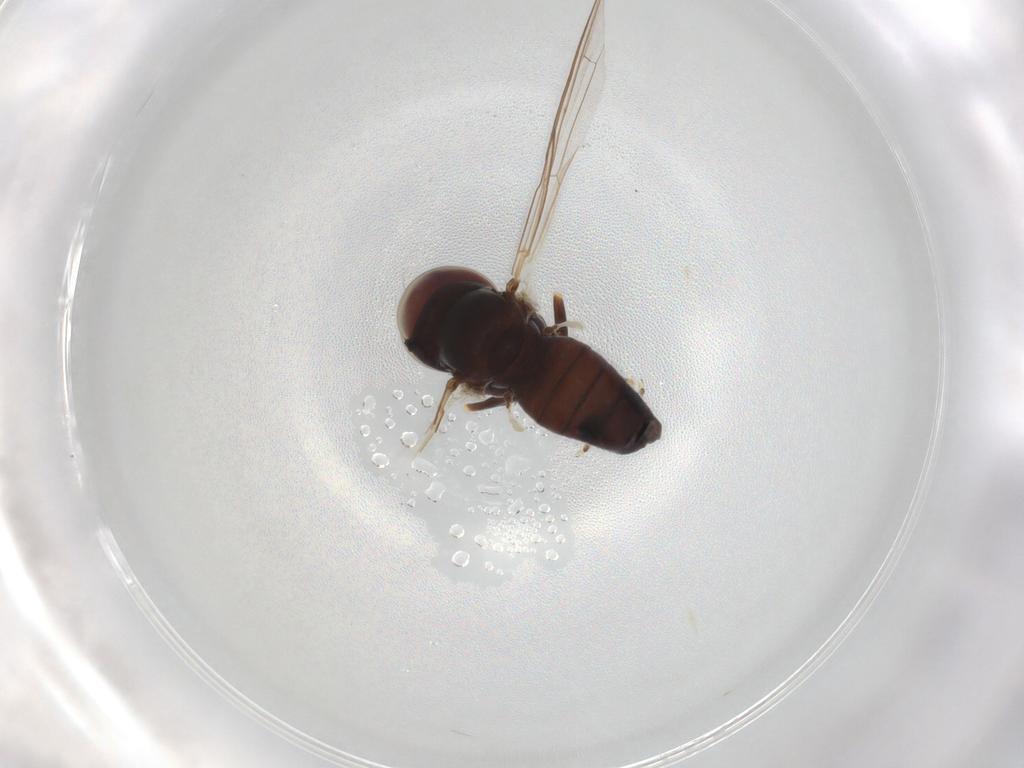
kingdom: Animalia
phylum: Arthropoda
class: Insecta
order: Diptera
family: Pipunculidae
